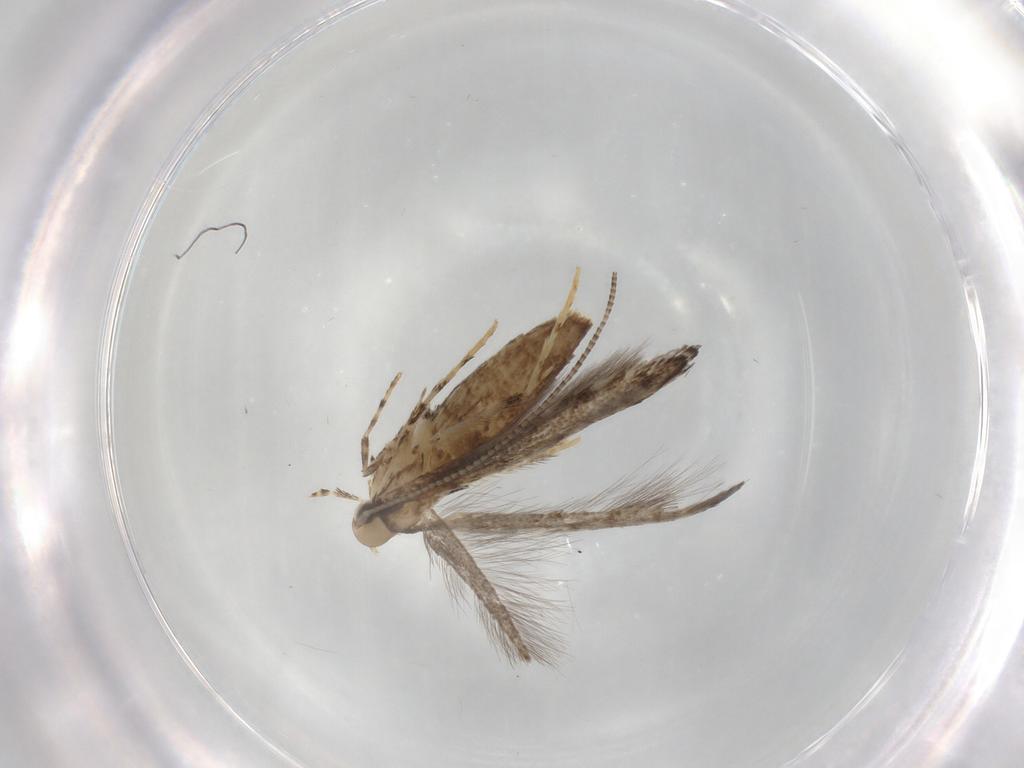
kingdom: Animalia
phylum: Arthropoda
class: Insecta
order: Lepidoptera
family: Gracillariidae
